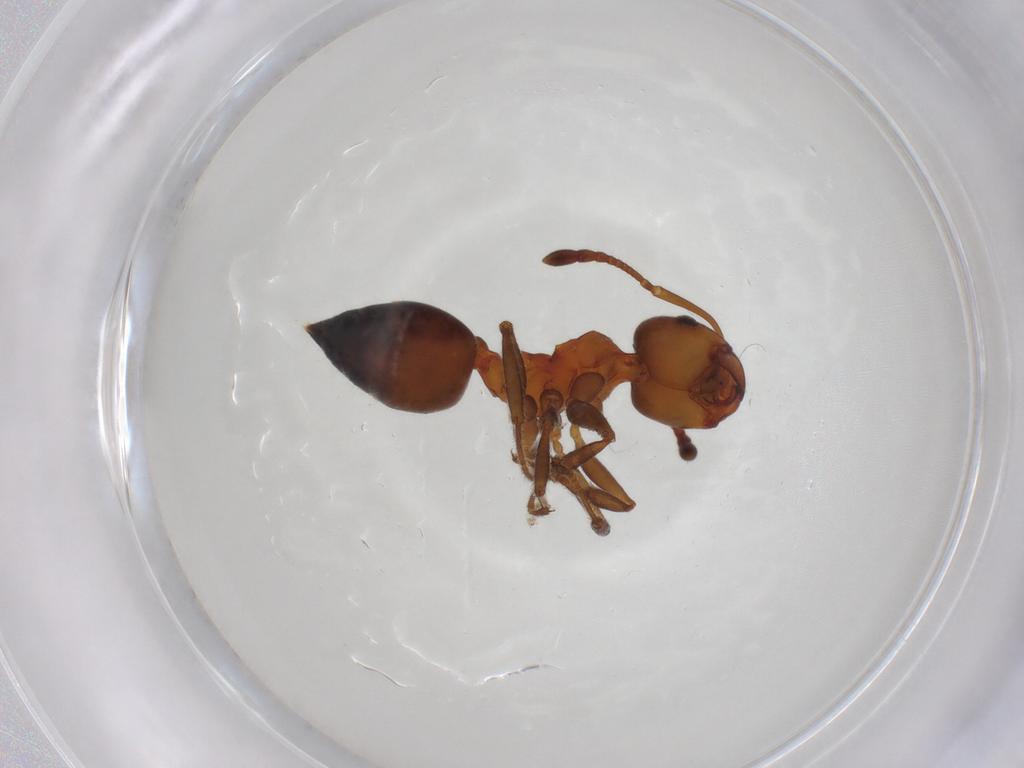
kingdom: Animalia
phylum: Arthropoda
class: Insecta
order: Hymenoptera
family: Formicidae
